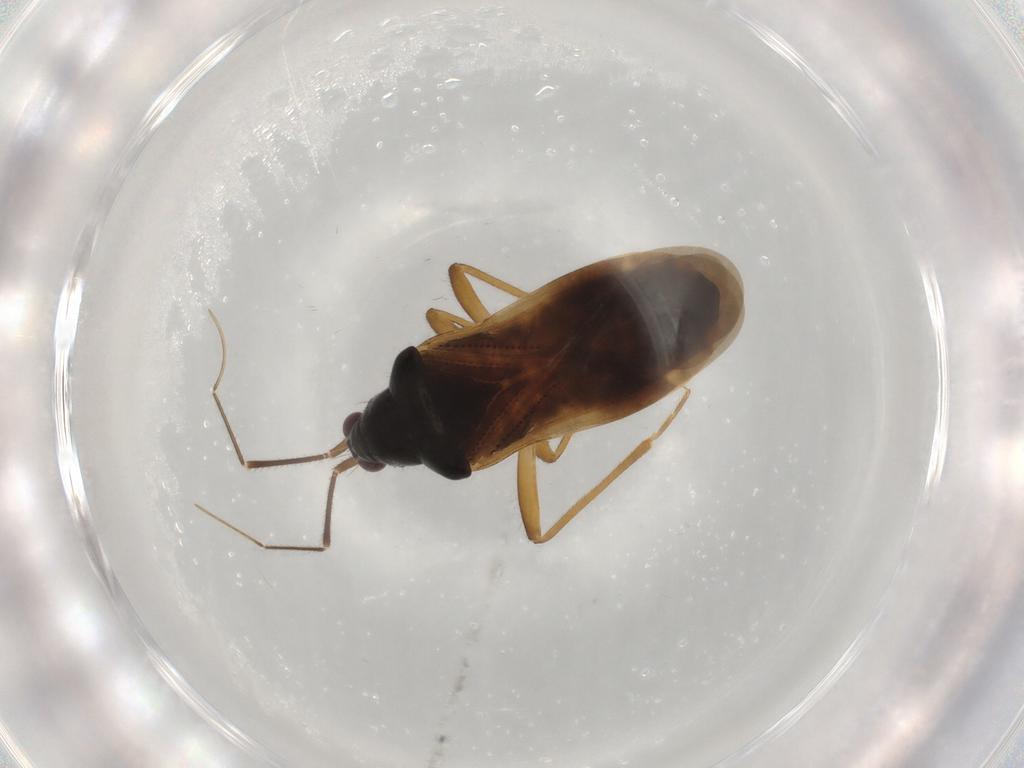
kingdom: Animalia
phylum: Arthropoda
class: Insecta
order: Hemiptera
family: Nabidae
